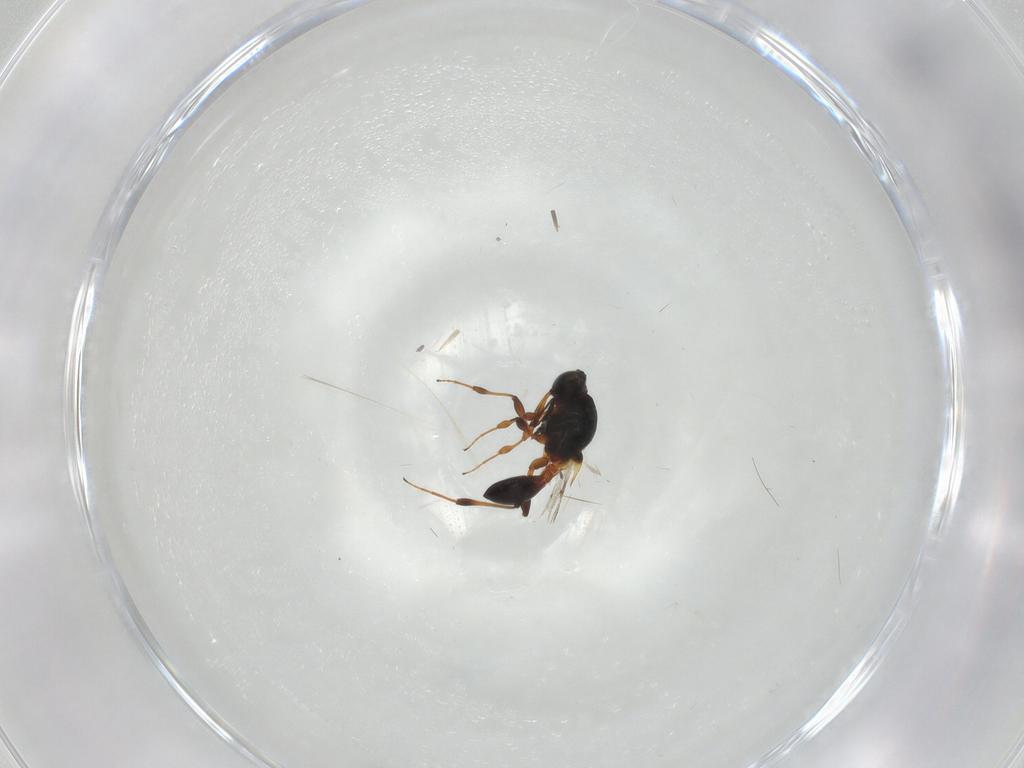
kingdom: Animalia
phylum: Arthropoda
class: Insecta
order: Hymenoptera
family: Platygastridae
